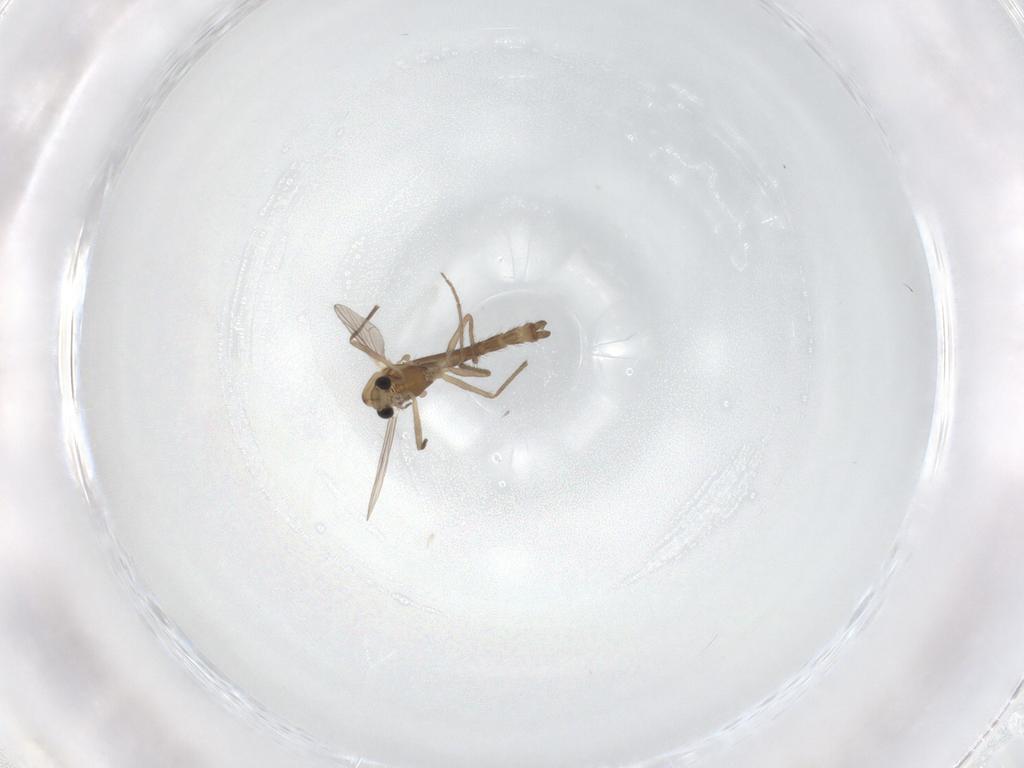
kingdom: Animalia
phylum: Arthropoda
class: Insecta
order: Diptera
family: Chironomidae
